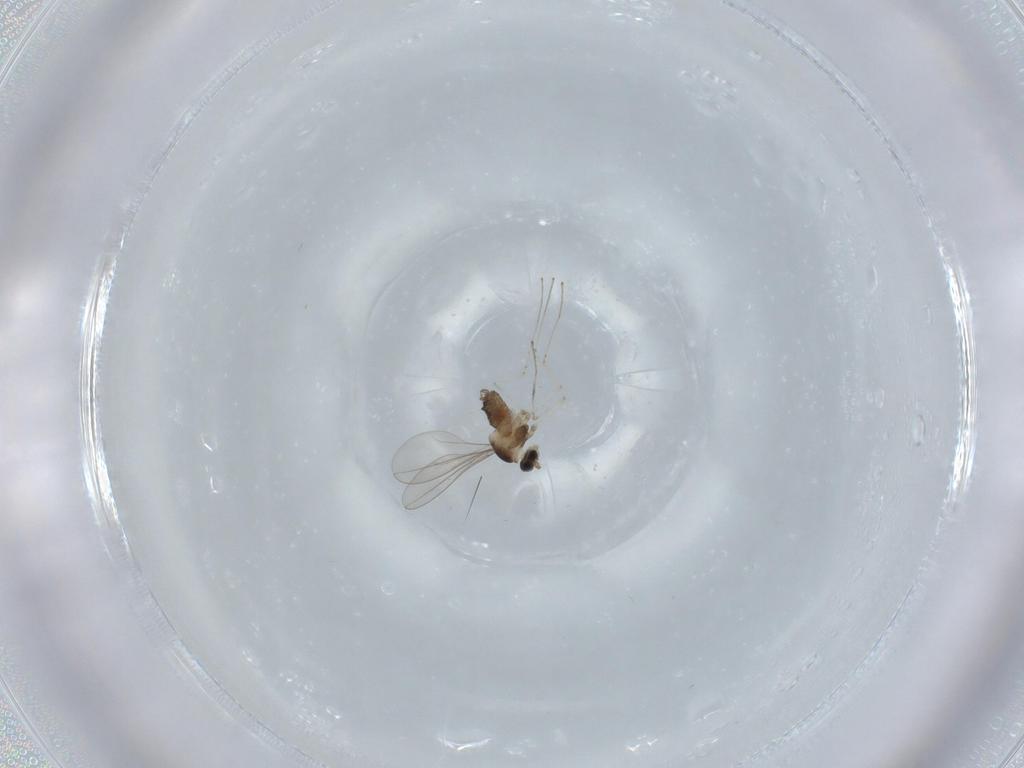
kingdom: Animalia
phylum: Arthropoda
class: Insecta
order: Diptera
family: Cecidomyiidae
